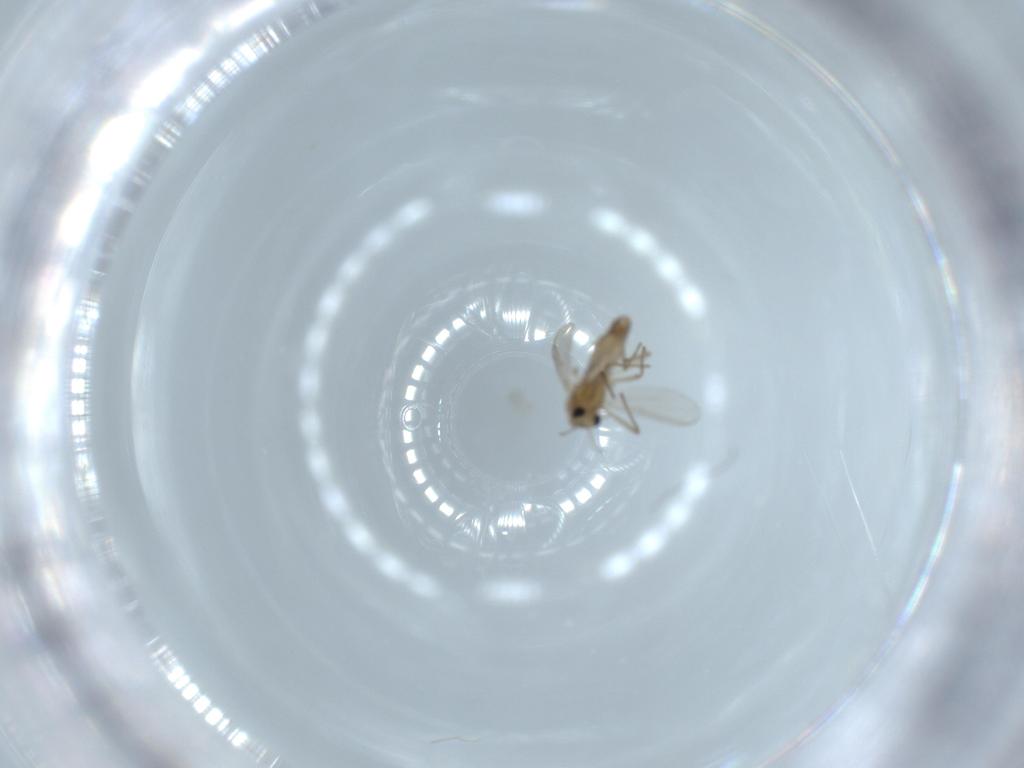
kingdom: Animalia
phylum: Arthropoda
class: Insecta
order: Diptera
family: Sciaridae
